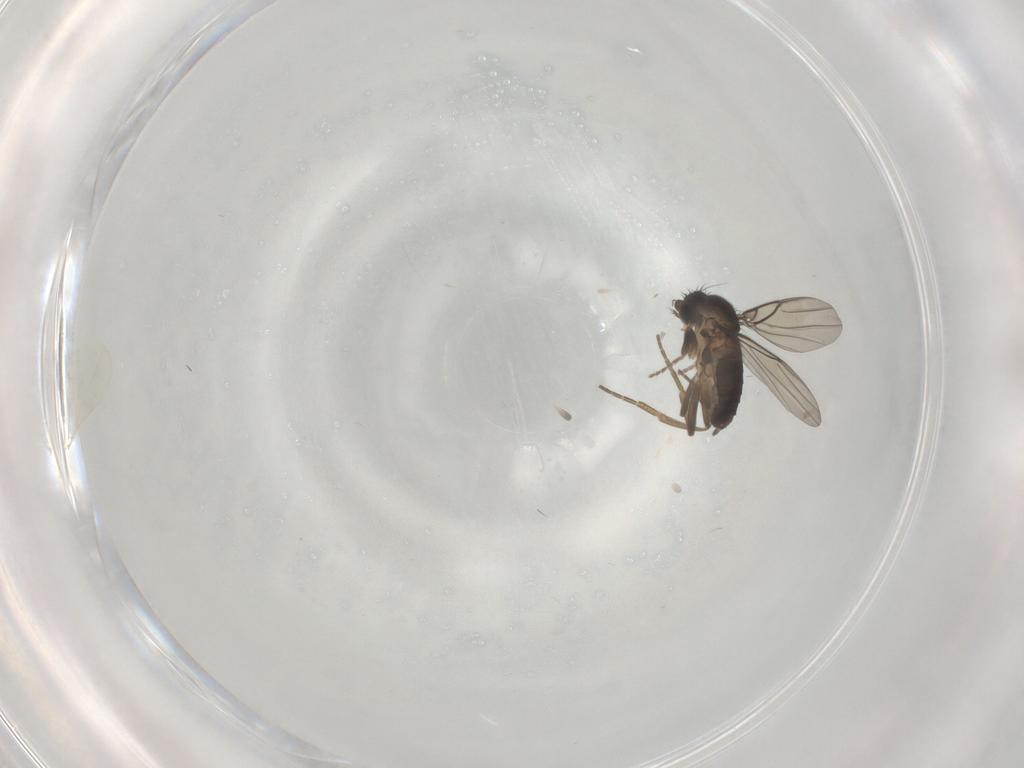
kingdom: Animalia
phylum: Arthropoda
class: Insecta
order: Diptera
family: Phoridae
